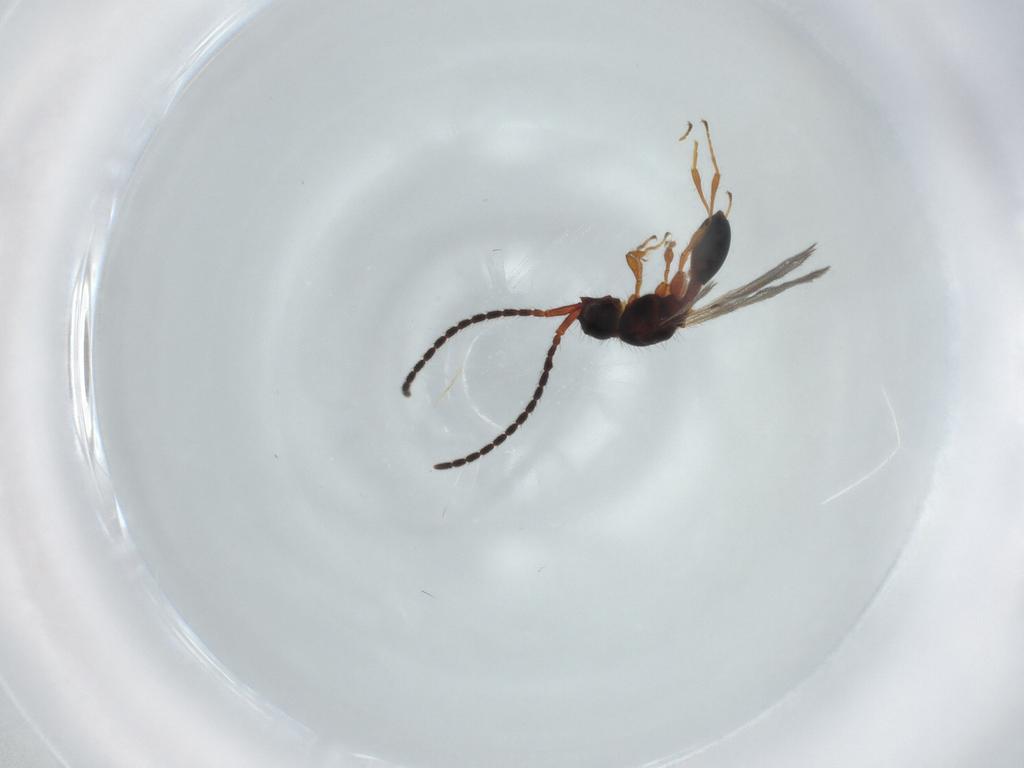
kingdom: Animalia
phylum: Arthropoda
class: Insecta
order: Hymenoptera
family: Diapriidae
